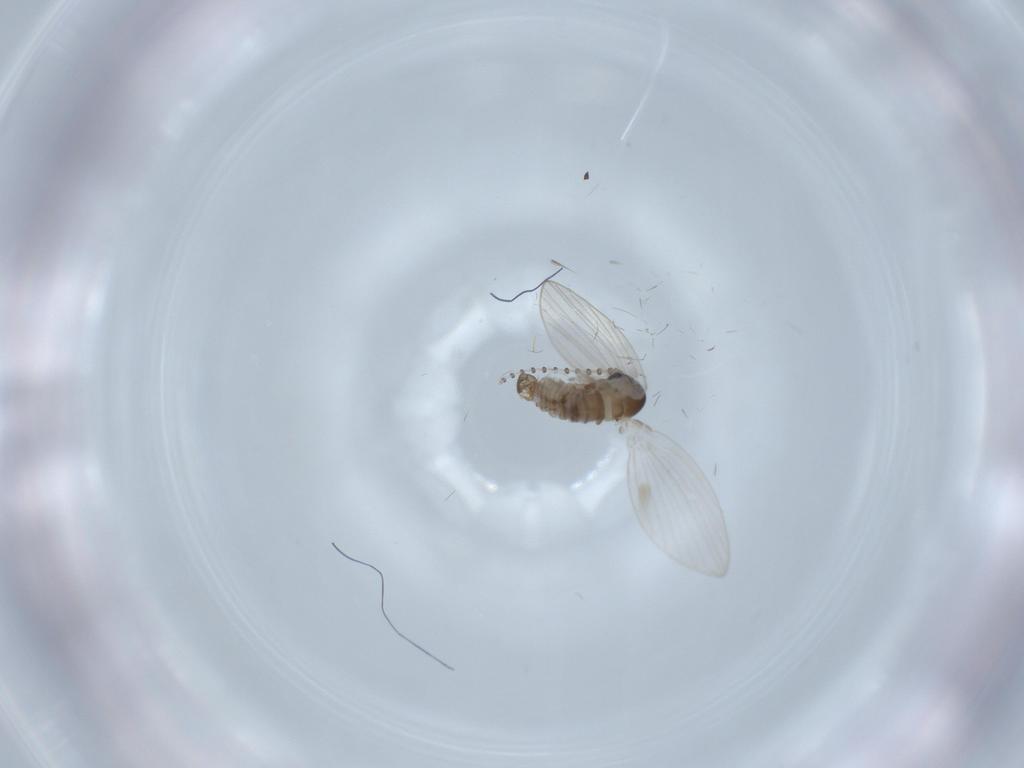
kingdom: Animalia
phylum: Arthropoda
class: Insecta
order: Diptera
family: Psychodidae
